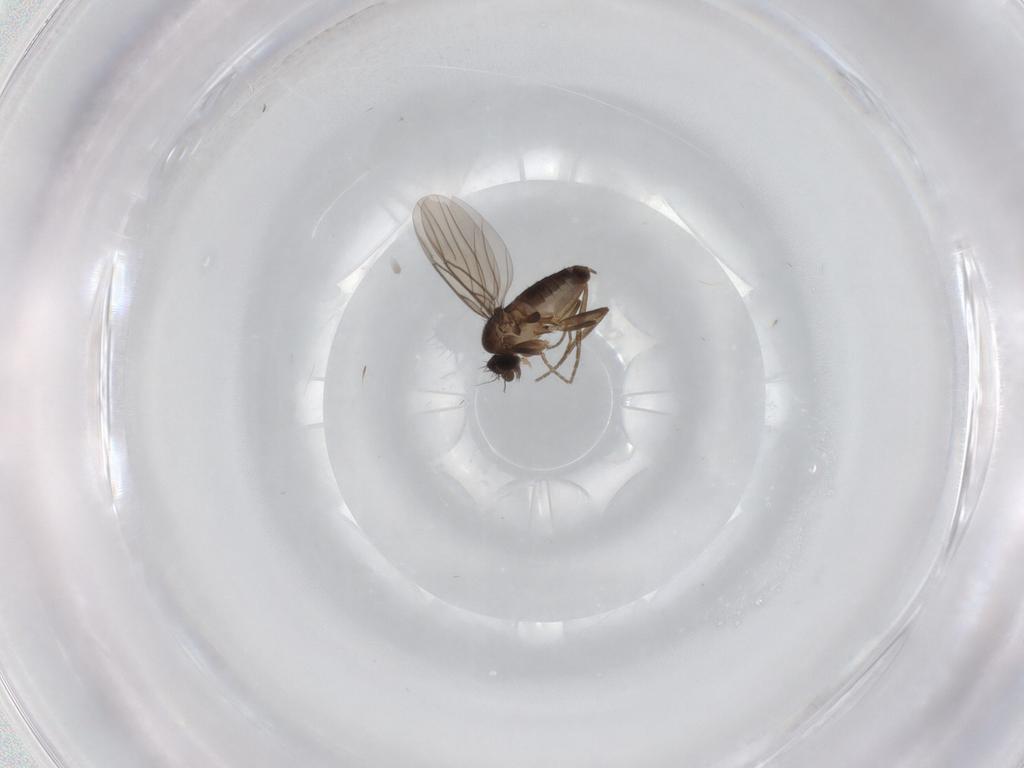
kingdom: Animalia
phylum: Arthropoda
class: Insecta
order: Diptera
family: Phoridae
